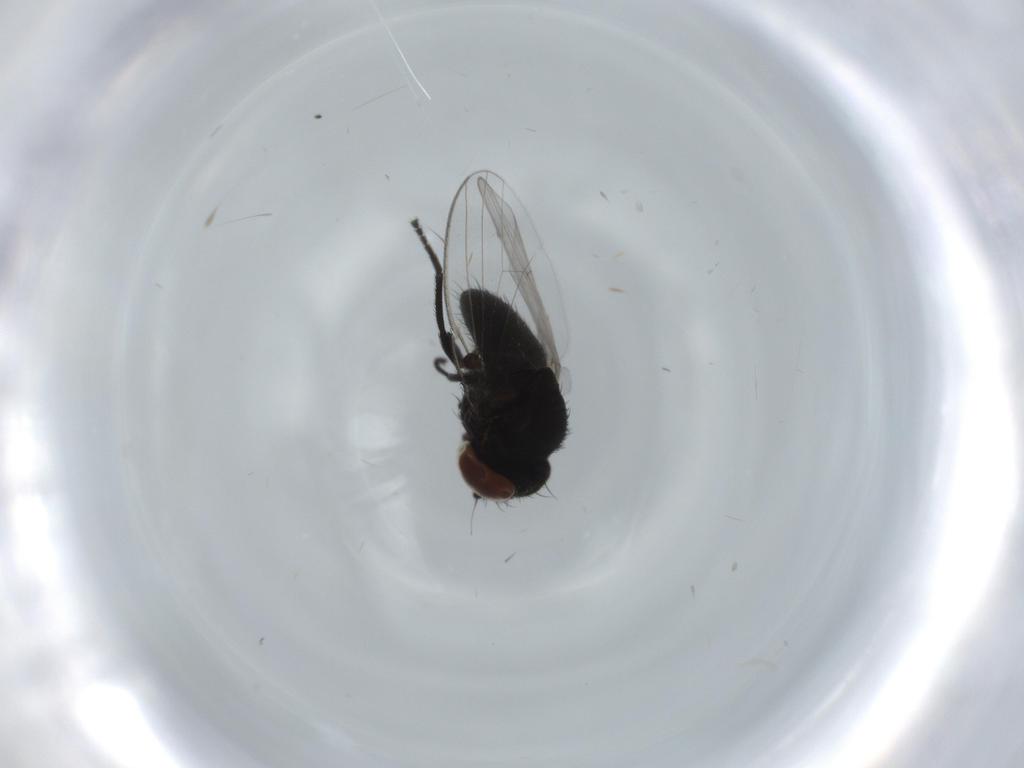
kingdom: Animalia
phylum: Arthropoda
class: Insecta
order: Diptera
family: Milichiidae
